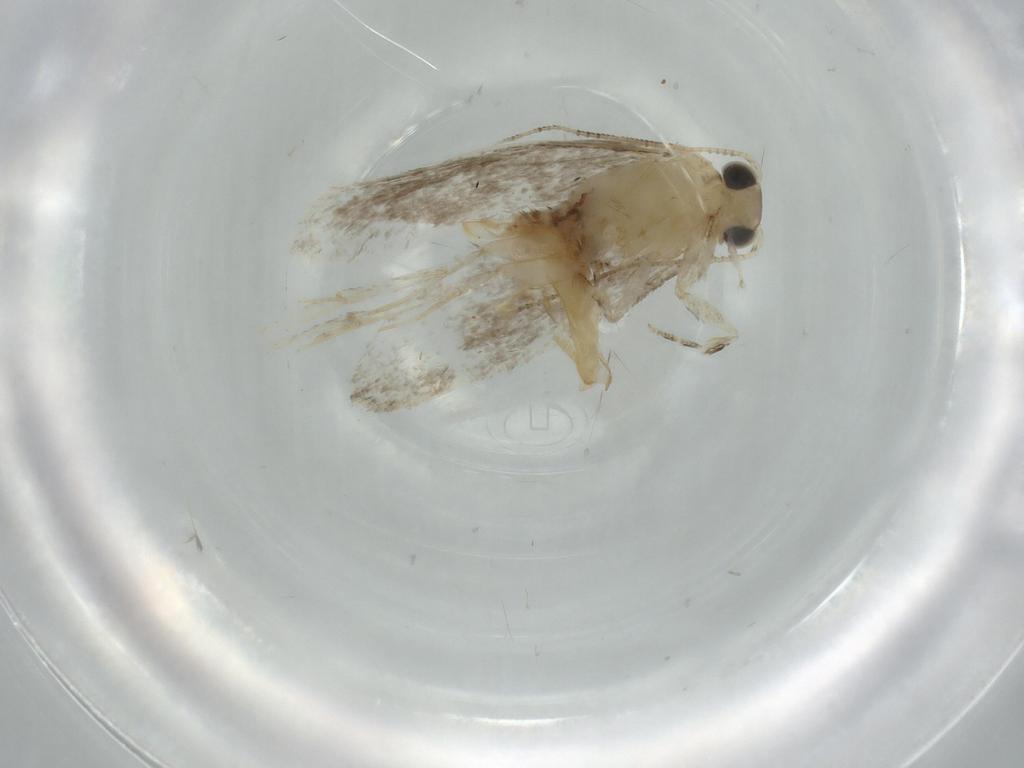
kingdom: Animalia
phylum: Arthropoda
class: Insecta
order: Lepidoptera
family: Tineidae
